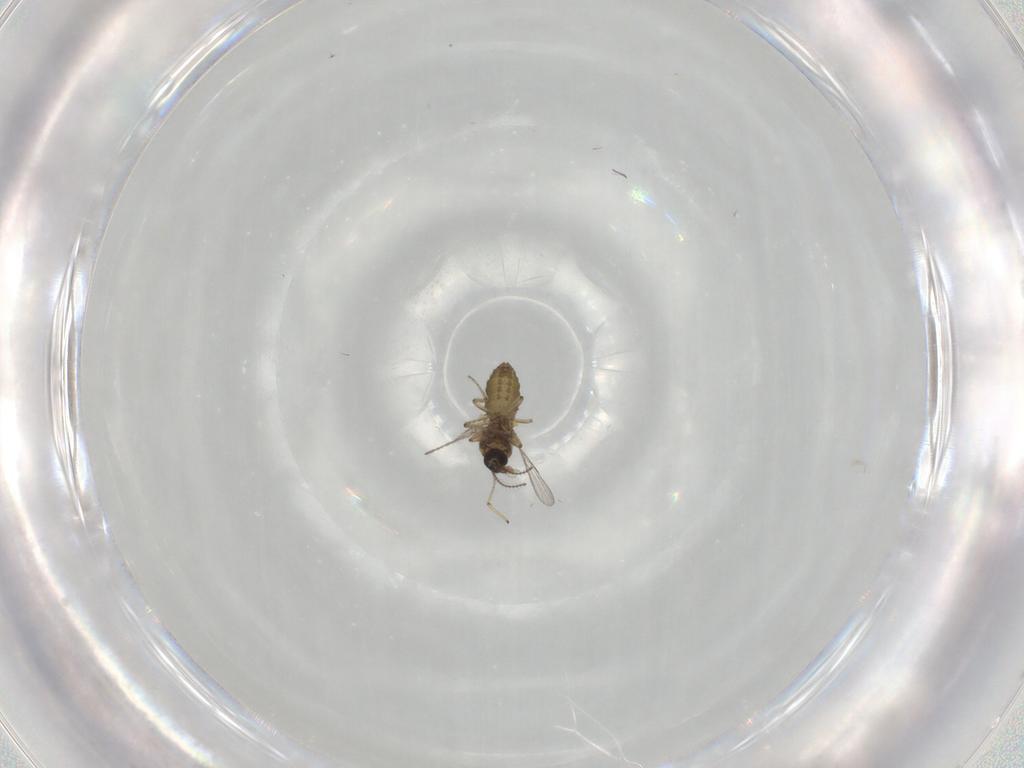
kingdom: Animalia
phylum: Arthropoda
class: Insecta
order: Diptera
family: Ceratopogonidae
